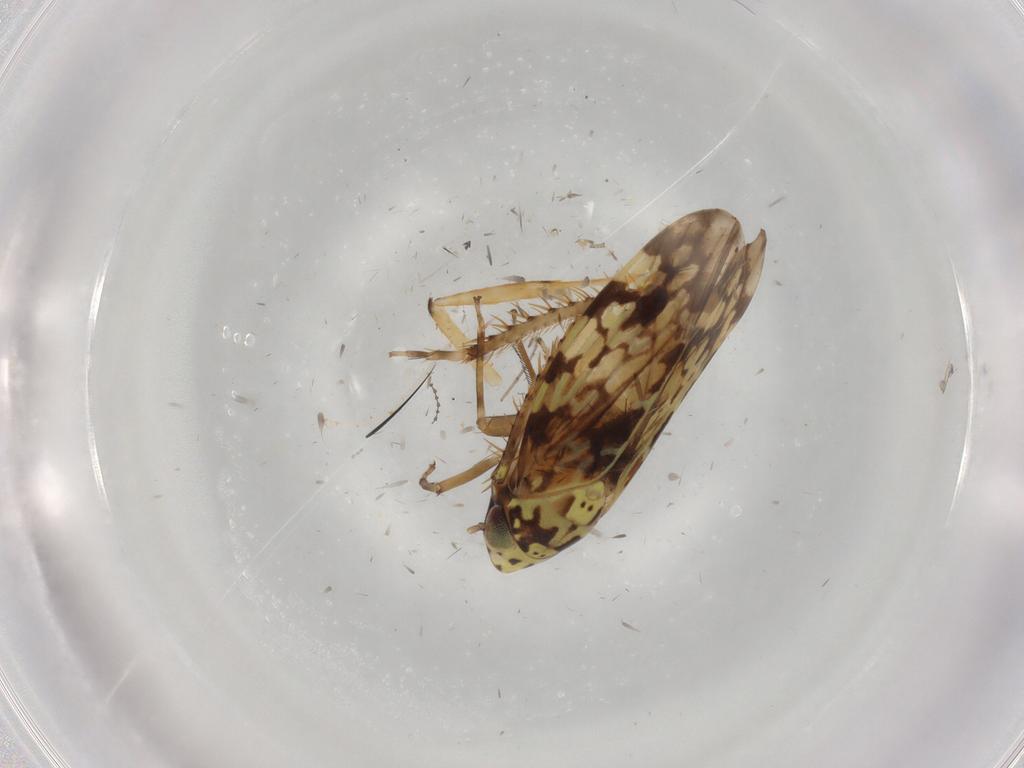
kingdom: Animalia
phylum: Arthropoda
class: Insecta
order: Hemiptera
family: Aleyrodidae
